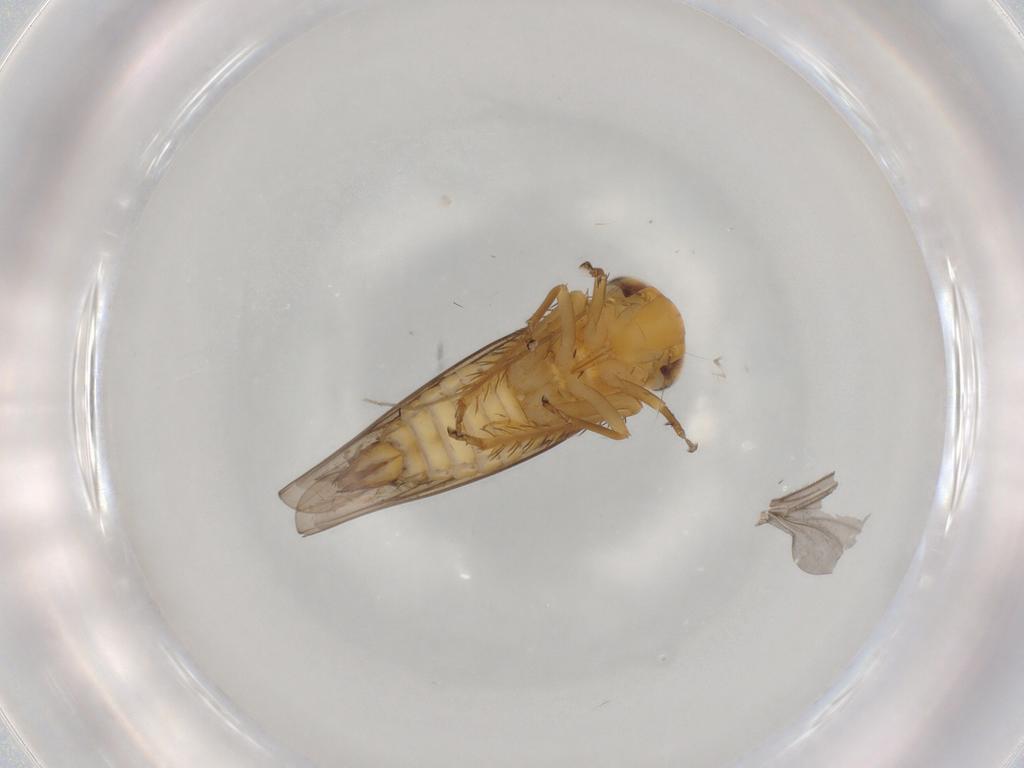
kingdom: Animalia
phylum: Arthropoda
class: Insecta
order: Hemiptera
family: Cicadellidae
